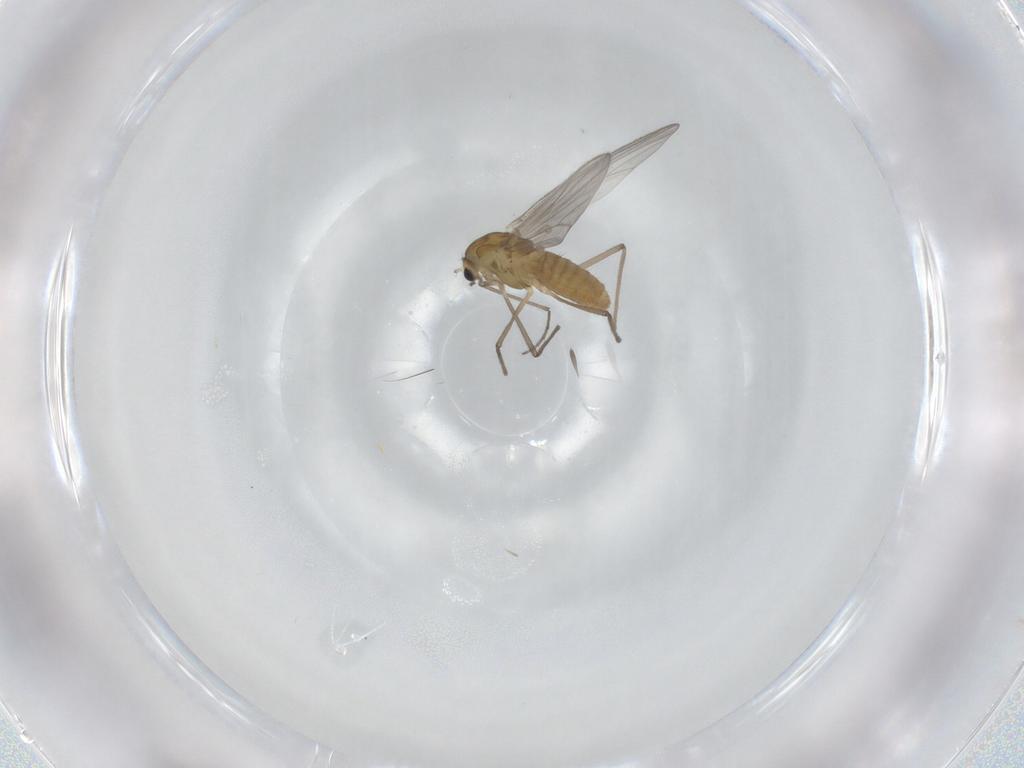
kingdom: Animalia
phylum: Arthropoda
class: Insecta
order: Diptera
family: Chironomidae
